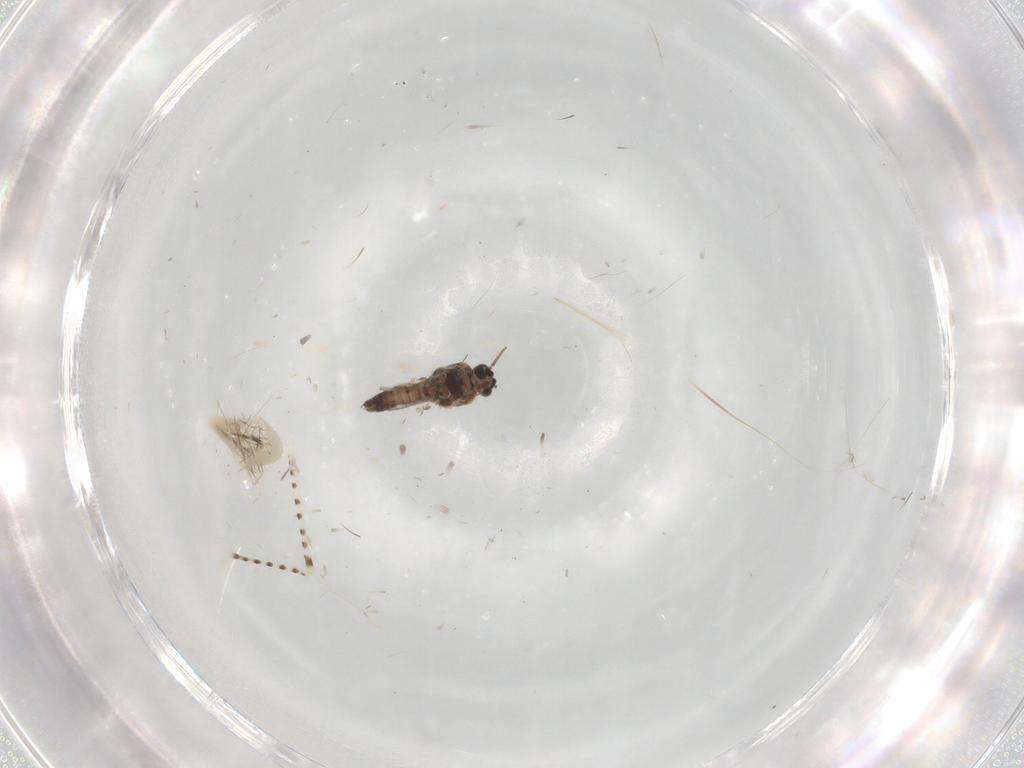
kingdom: Animalia
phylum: Arthropoda
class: Insecta
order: Diptera
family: Chaoboridae
